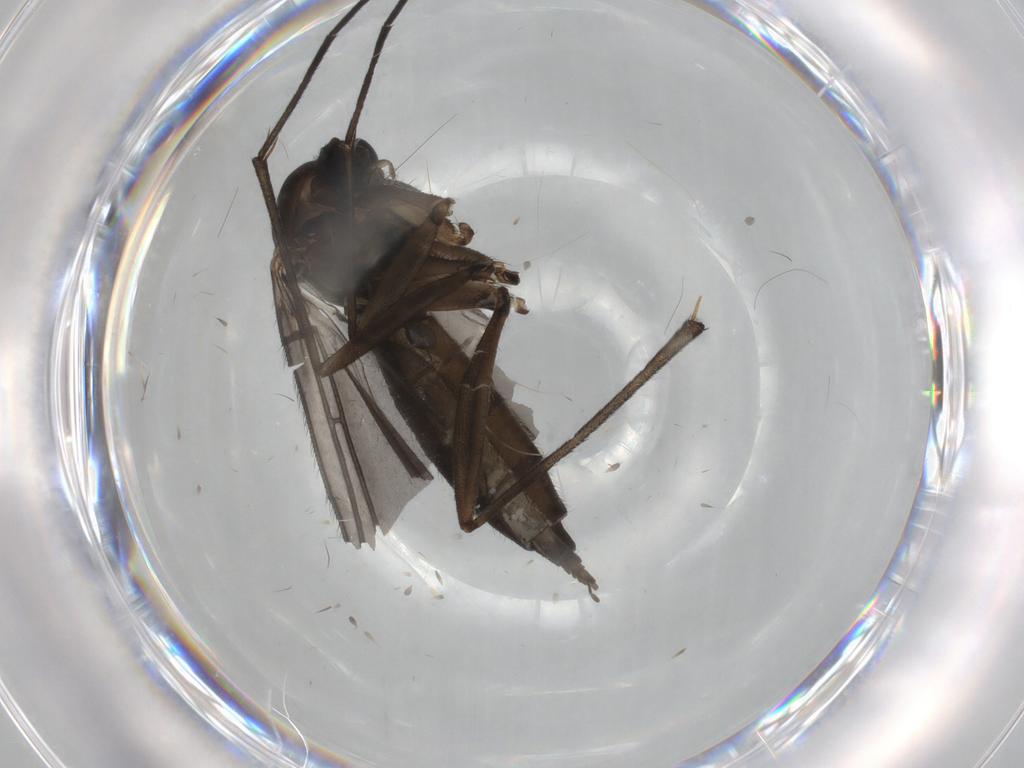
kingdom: Animalia
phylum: Arthropoda
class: Insecta
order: Diptera
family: Sciaridae
